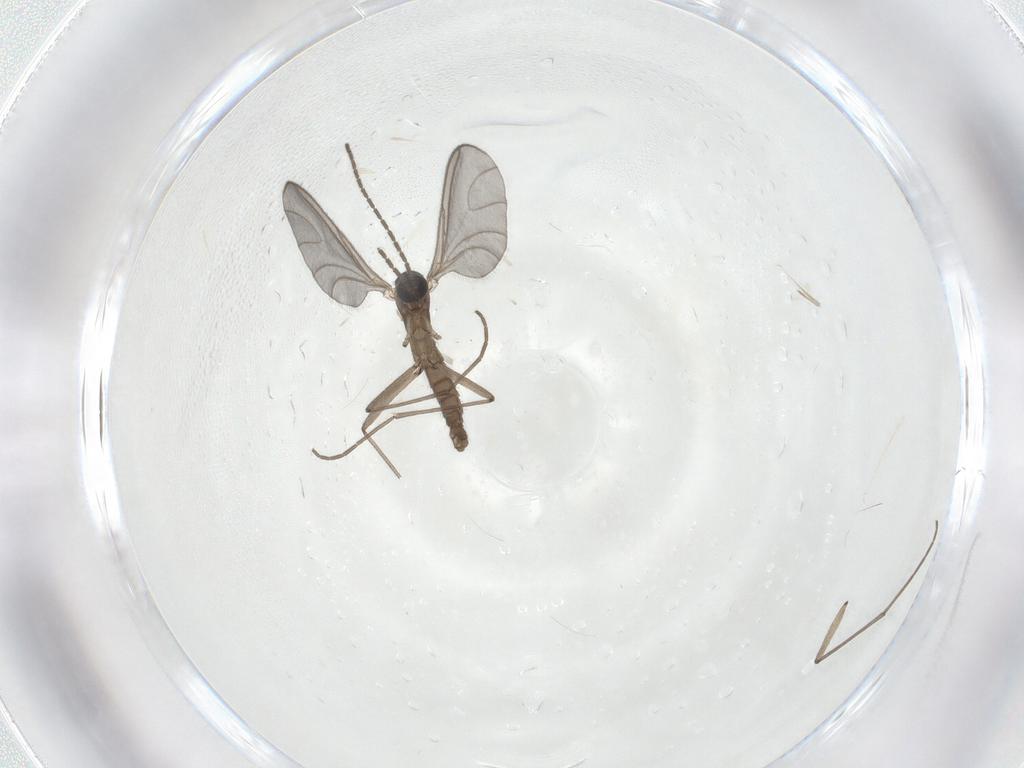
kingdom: Animalia
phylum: Arthropoda
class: Insecta
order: Diptera
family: Sciaridae
